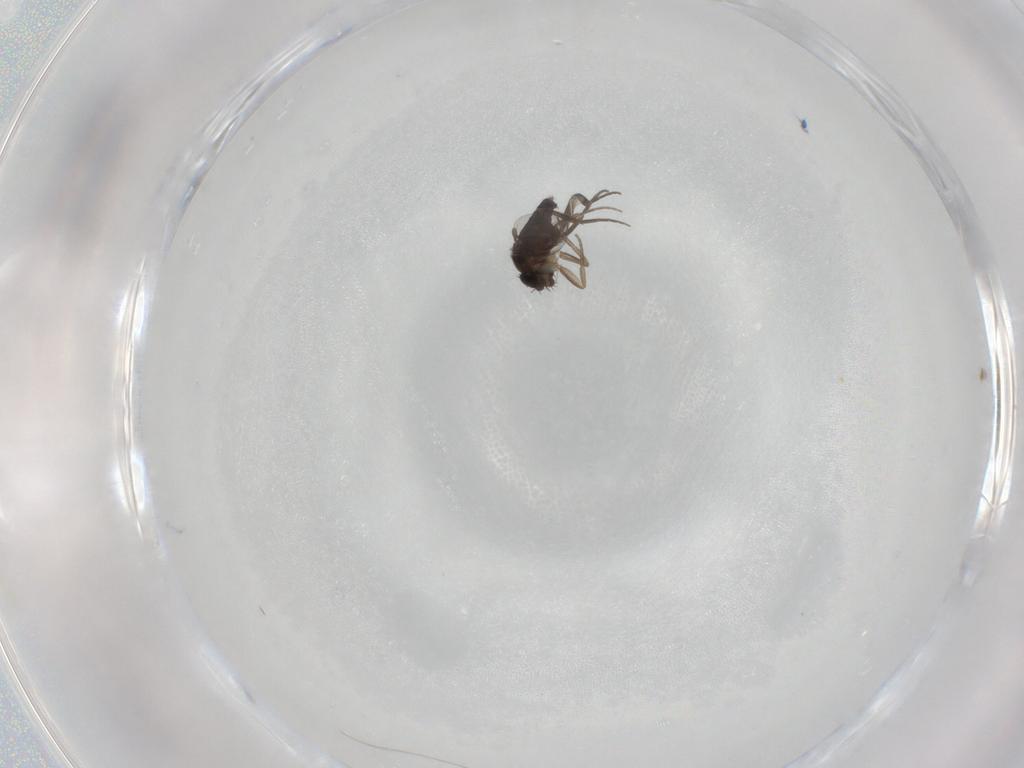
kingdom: Animalia
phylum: Arthropoda
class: Insecta
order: Diptera
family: Phoridae
